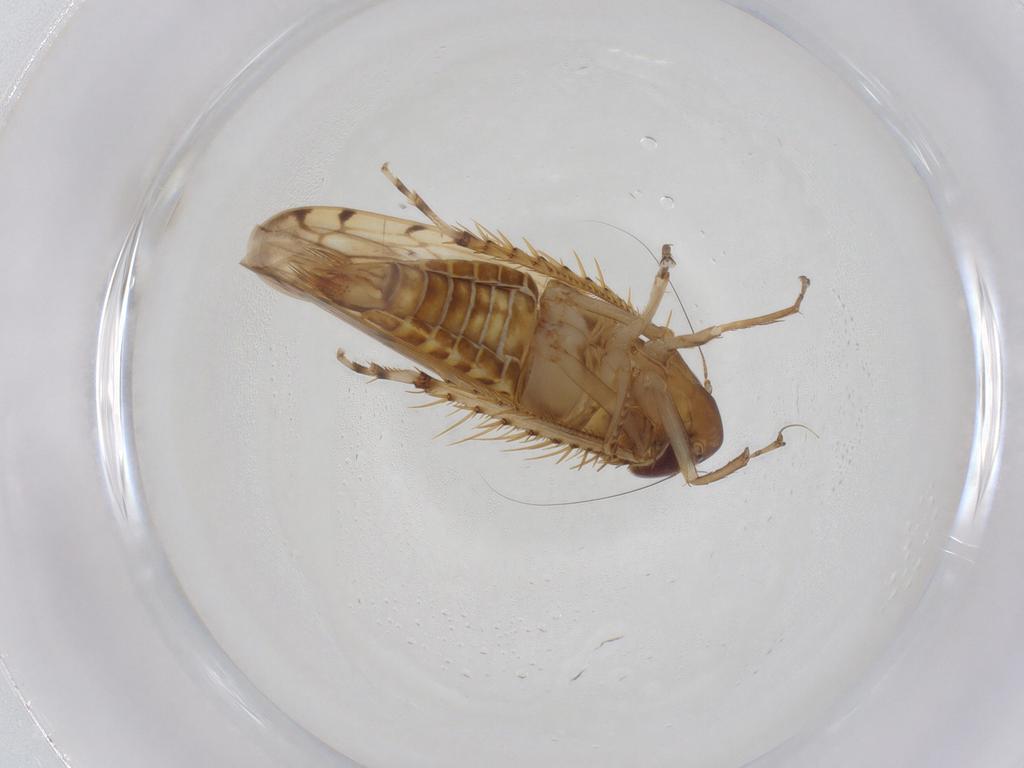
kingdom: Animalia
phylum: Arthropoda
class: Insecta
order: Hemiptera
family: Cicadellidae
